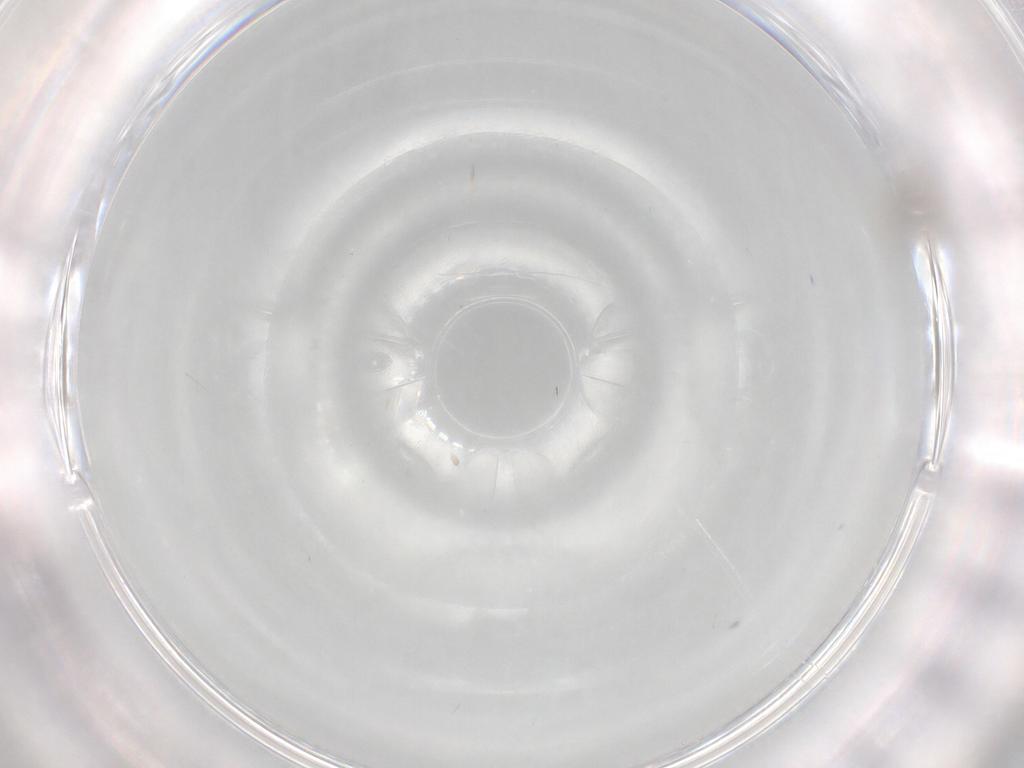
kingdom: Animalia
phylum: Arthropoda
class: Insecta
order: Diptera
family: Cecidomyiidae
